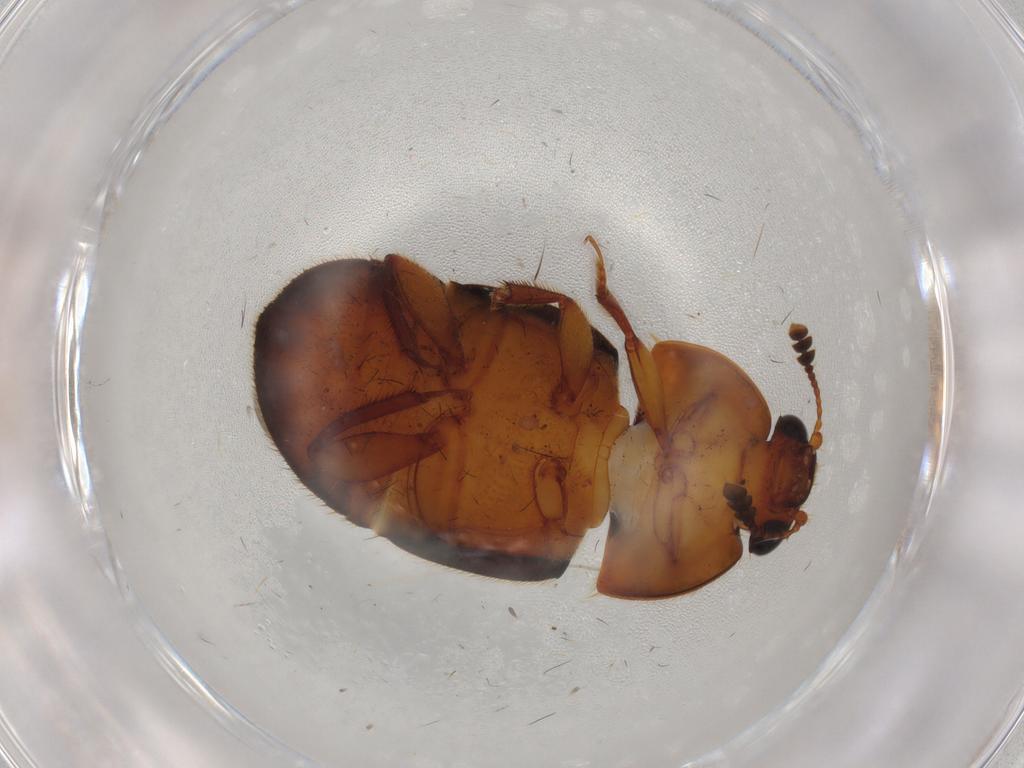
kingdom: Animalia
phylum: Arthropoda
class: Insecta
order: Coleoptera
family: Nitidulidae
